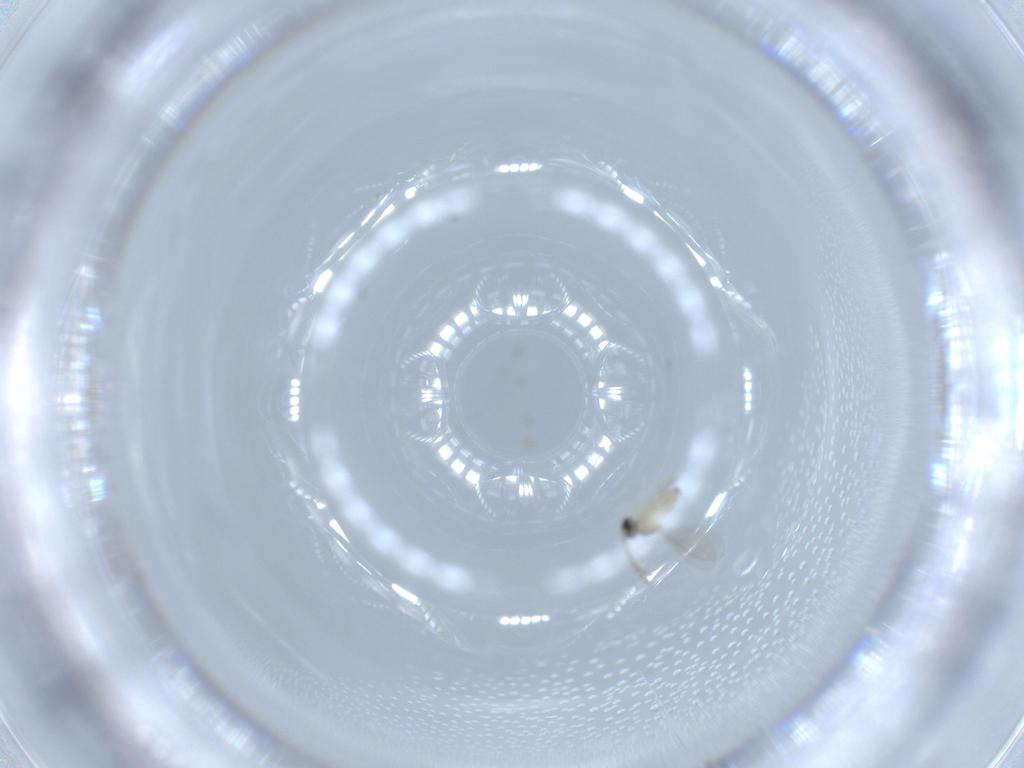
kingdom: Animalia
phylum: Arthropoda
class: Insecta
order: Diptera
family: Cecidomyiidae
